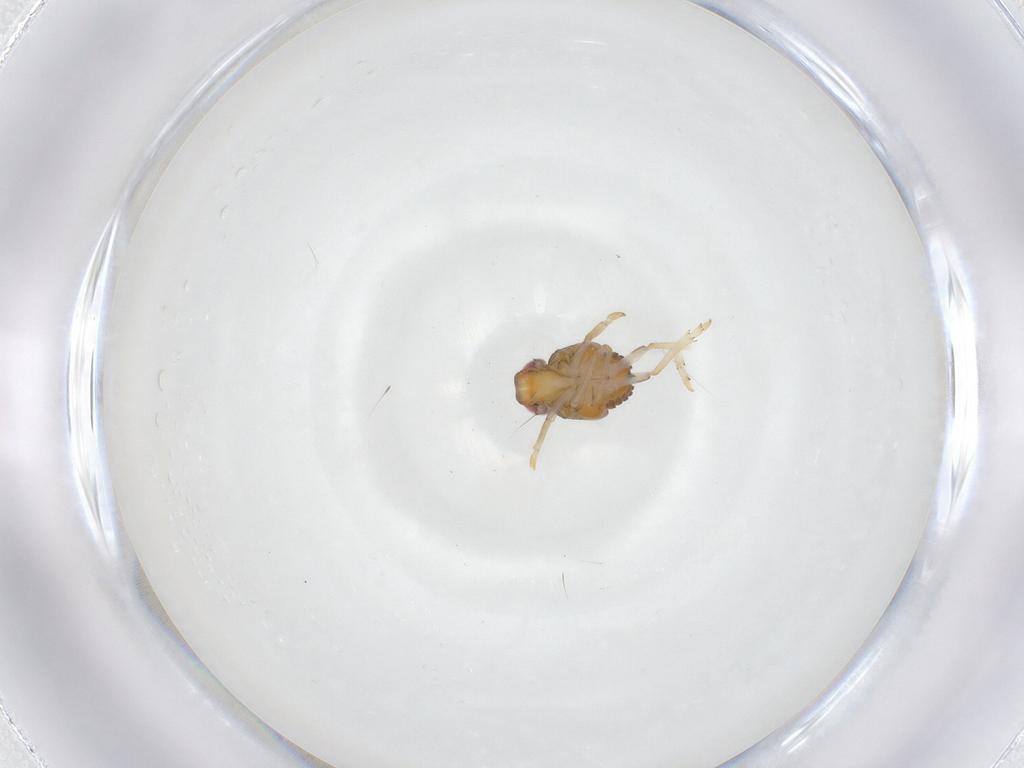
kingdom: Animalia
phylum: Arthropoda
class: Insecta
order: Hemiptera
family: Issidae
